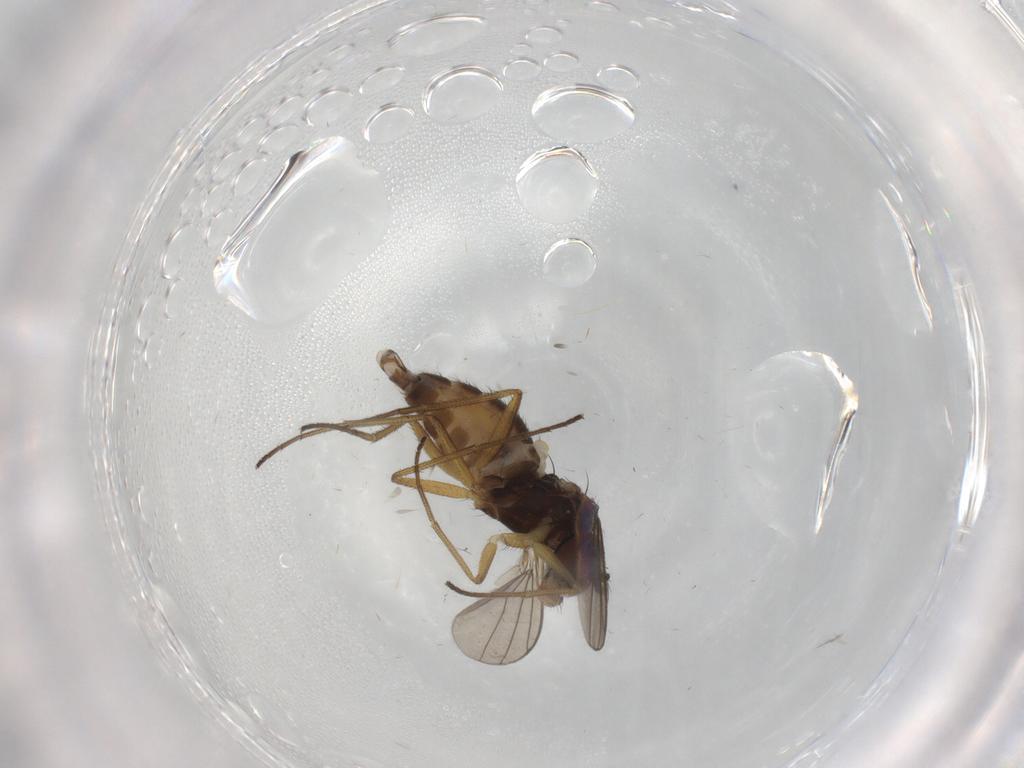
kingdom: Animalia
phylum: Arthropoda
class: Insecta
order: Diptera
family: Dolichopodidae
